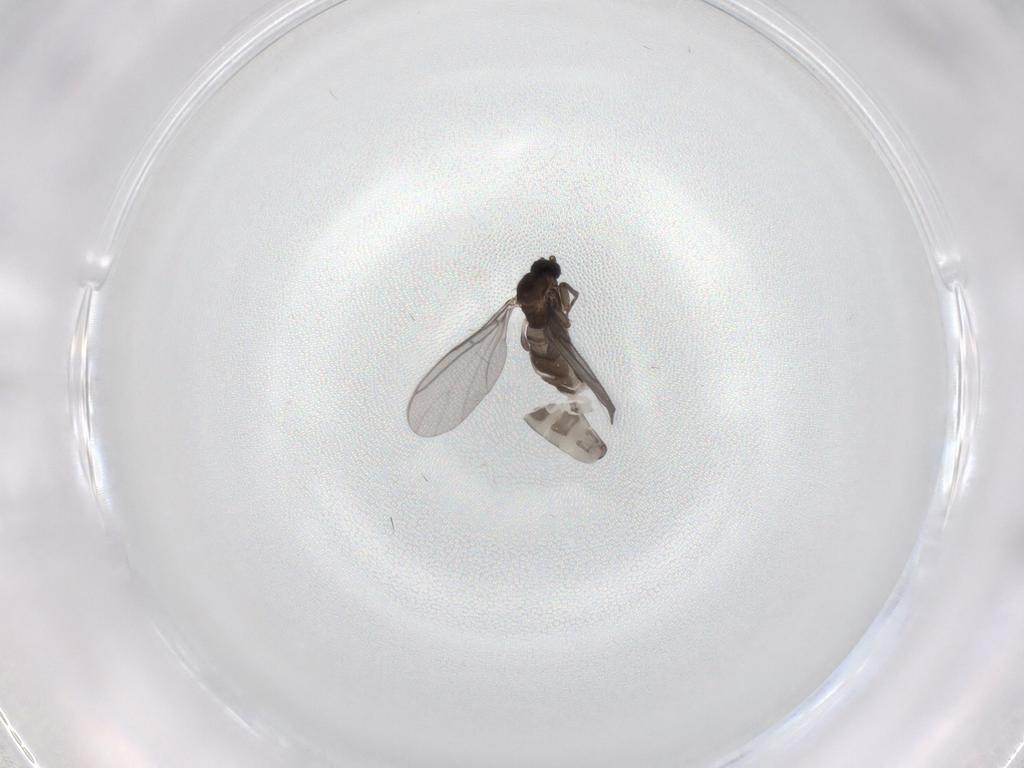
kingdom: Animalia
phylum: Arthropoda
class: Insecta
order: Diptera
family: Sciaridae
